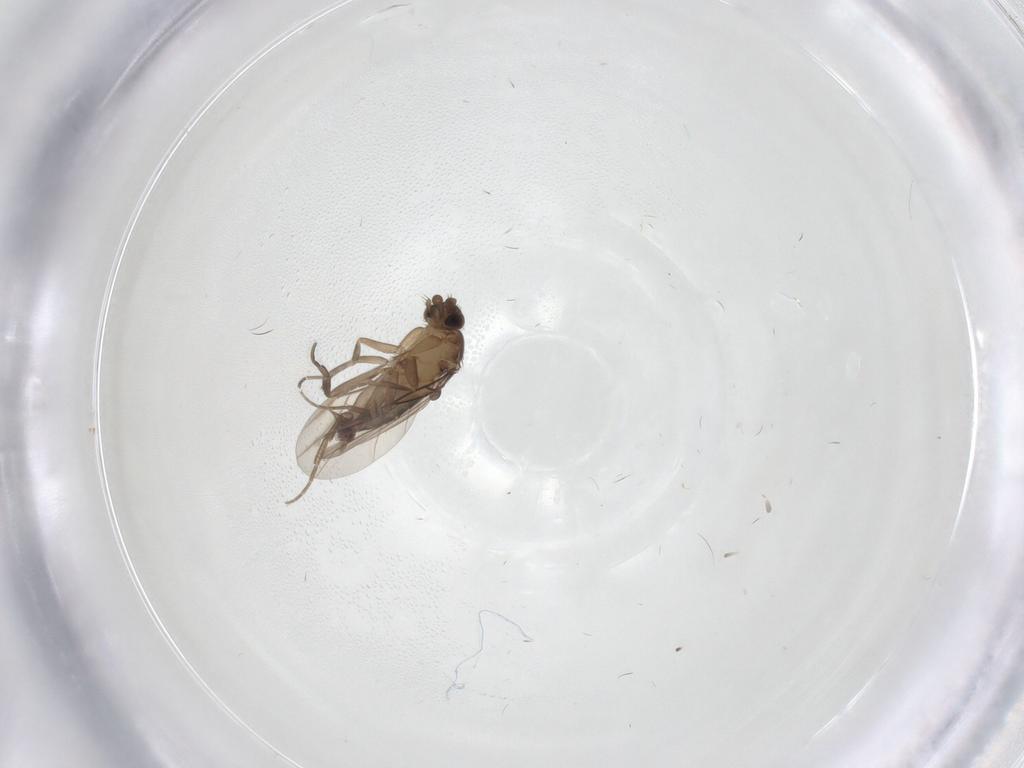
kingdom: Animalia
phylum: Arthropoda
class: Insecta
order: Diptera
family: Phoridae
